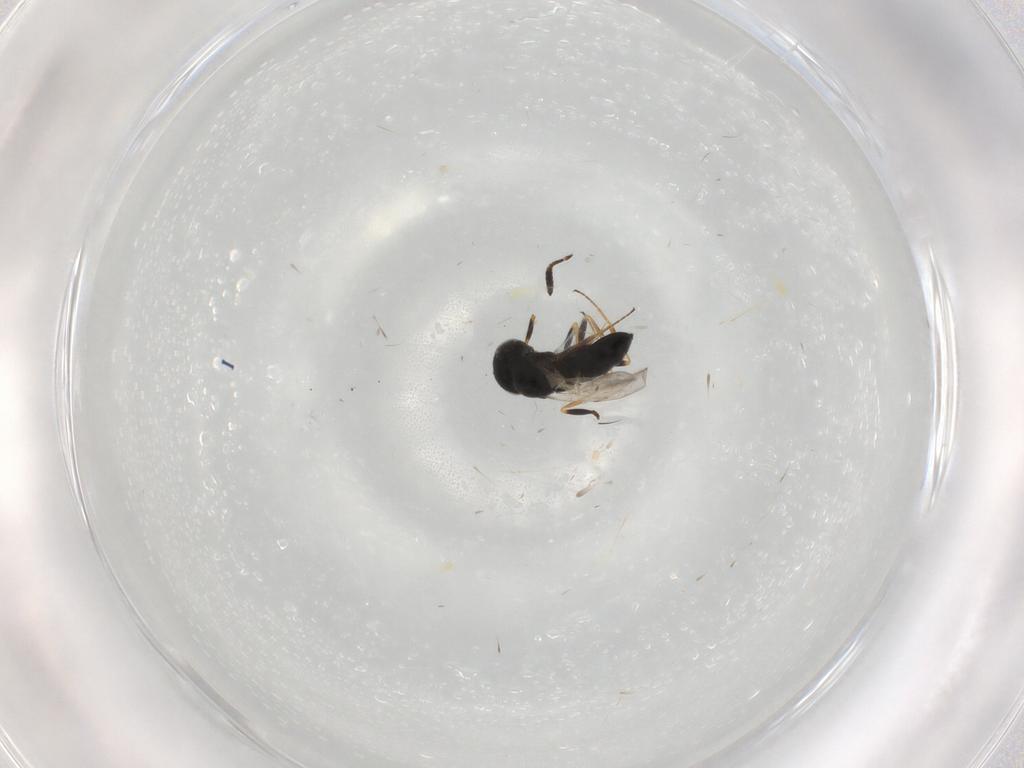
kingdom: Animalia
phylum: Arthropoda
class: Insecta
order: Hymenoptera
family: Scelionidae
